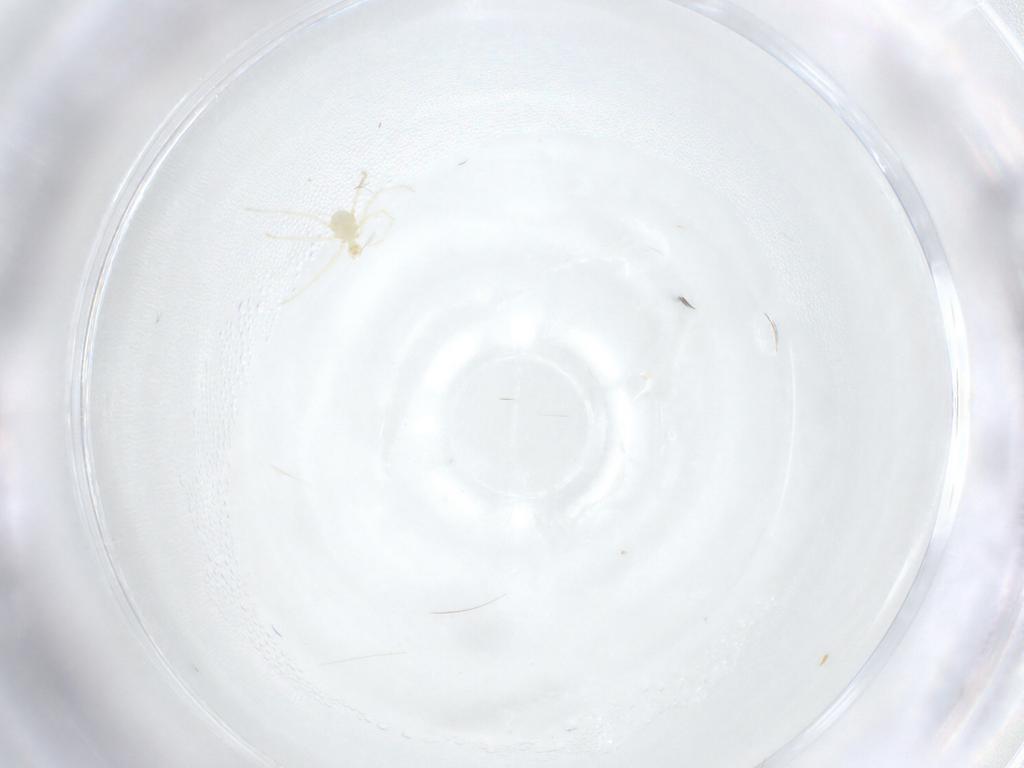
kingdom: Animalia
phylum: Arthropoda
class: Arachnida
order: Trombidiformes
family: Erythraeidae
